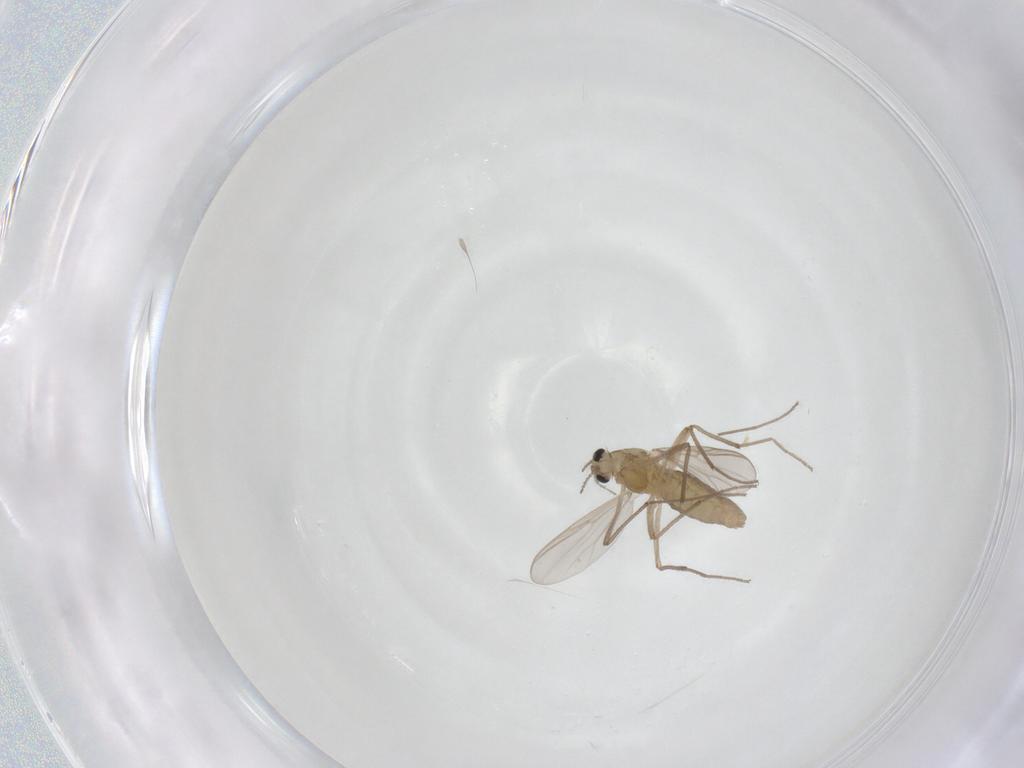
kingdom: Animalia
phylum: Arthropoda
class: Insecta
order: Diptera
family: Chironomidae
